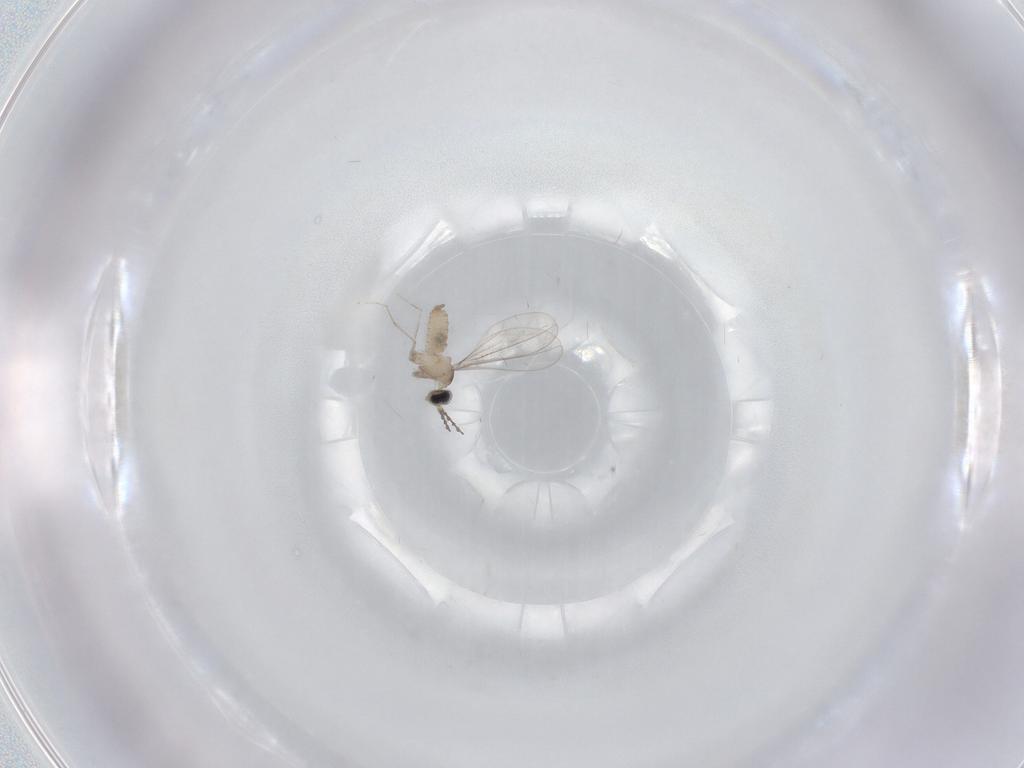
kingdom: Animalia
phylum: Arthropoda
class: Insecta
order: Diptera
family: Cecidomyiidae
